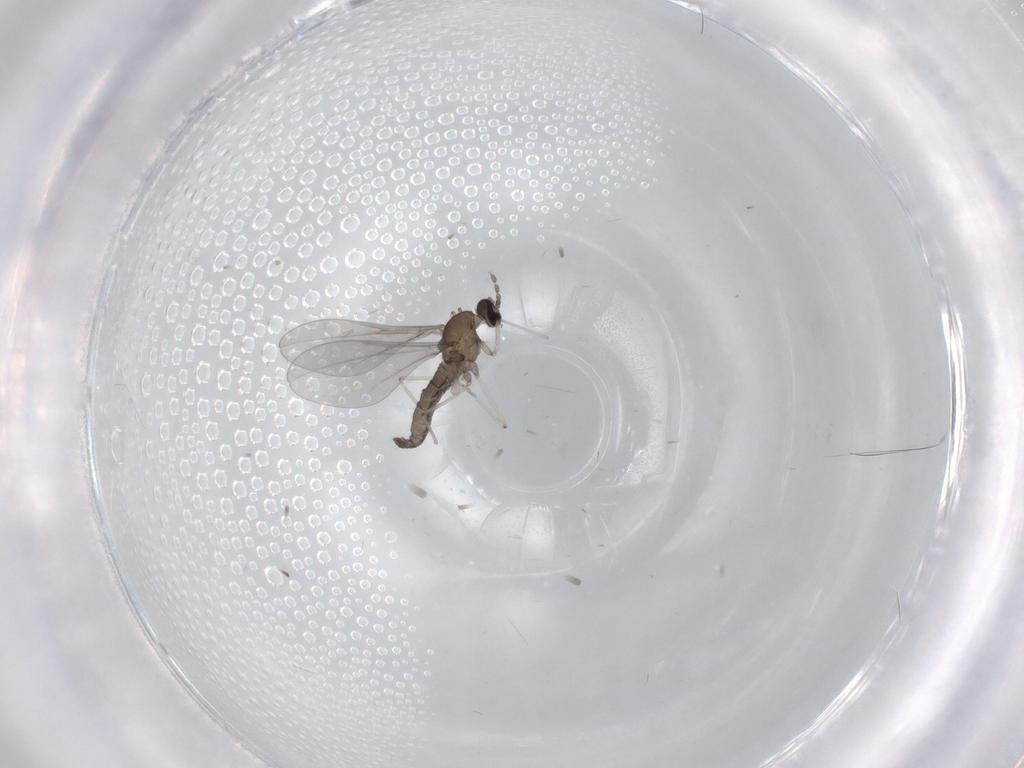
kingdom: Animalia
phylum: Arthropoda
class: Insecta
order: Diptera
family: Cecidomyiidae
